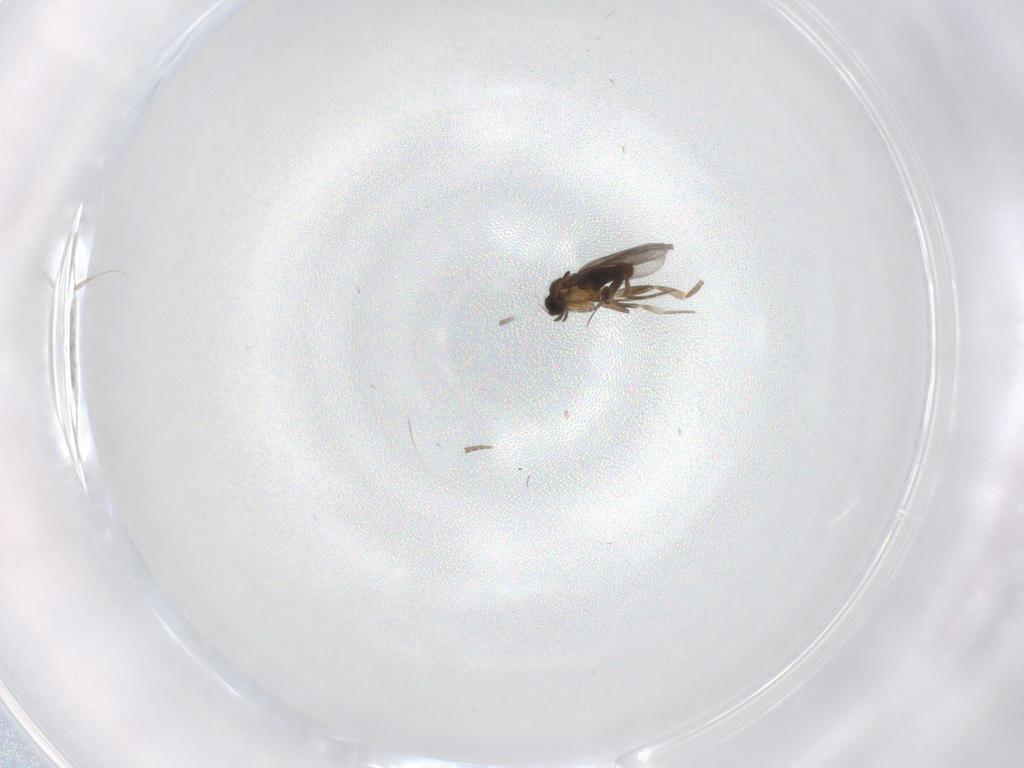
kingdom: Animalia
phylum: Arthropoda
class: Insecta
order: Diptera
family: Tabanidae
